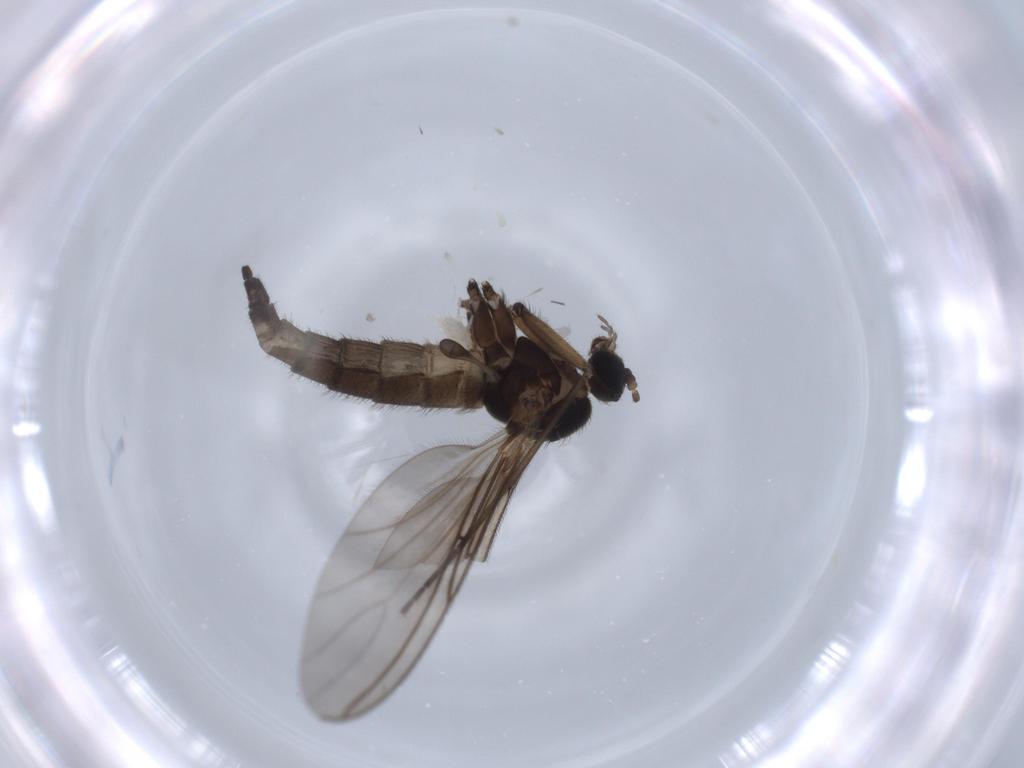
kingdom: Animalia
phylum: Arthropoda
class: Insecta
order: Diptera
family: Sciaridae
